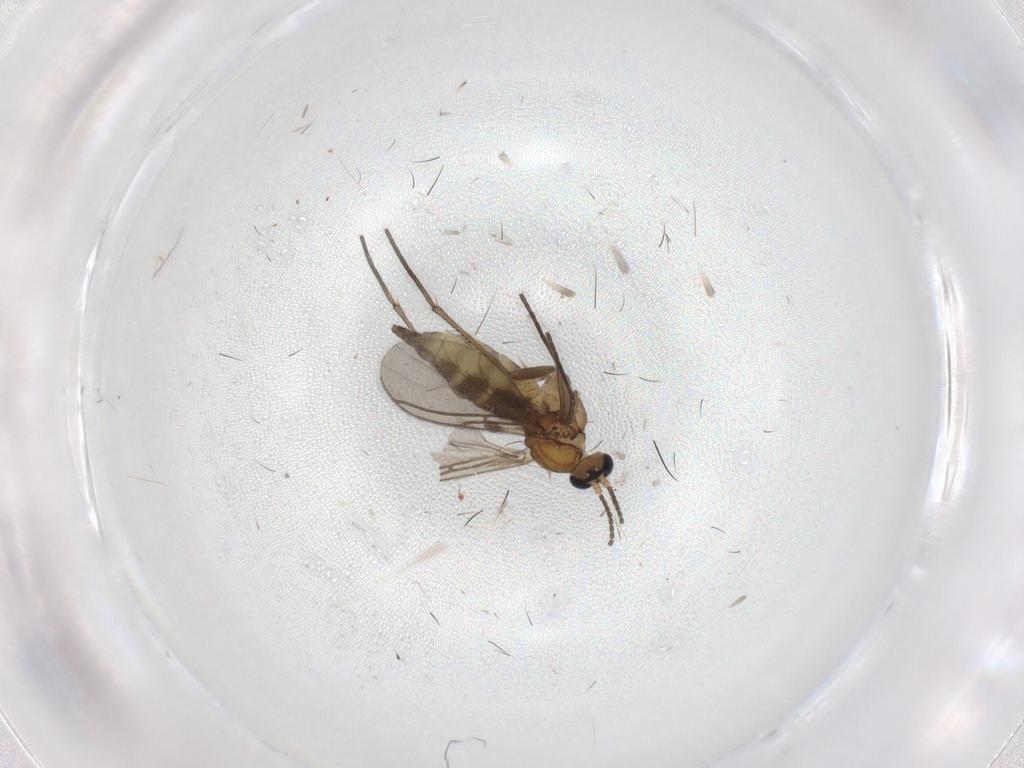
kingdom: Animalia
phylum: Arthropoda
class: Insecta
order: Diptera
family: Sciaridae
